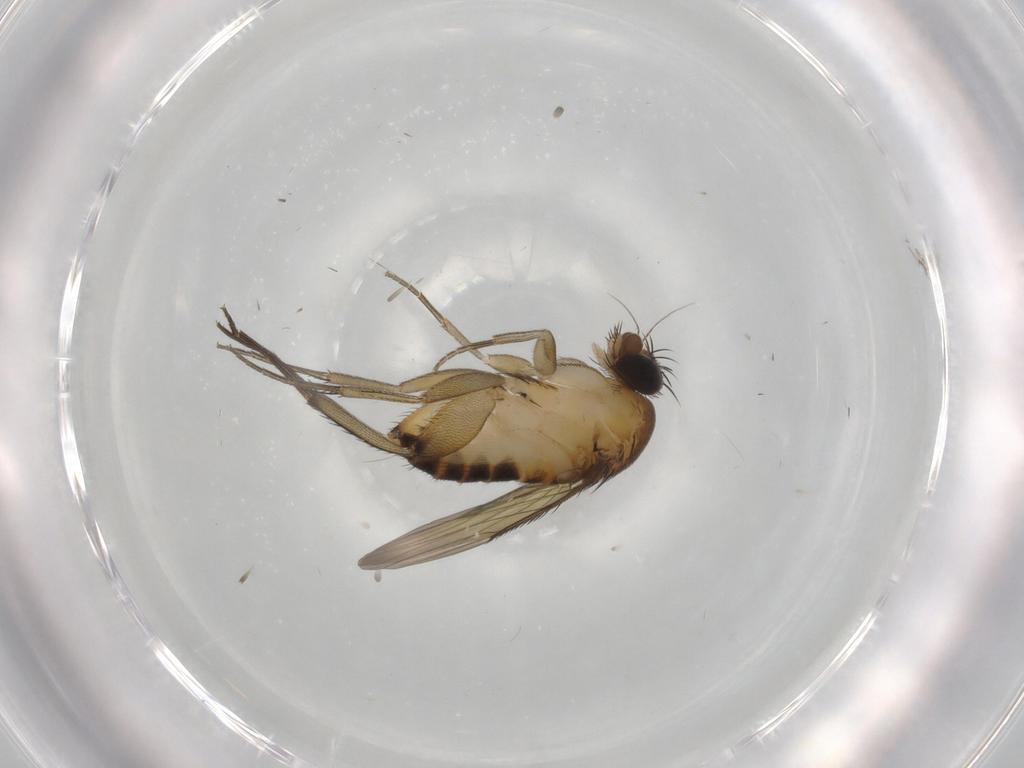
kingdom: Animalia
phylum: Arthropoda
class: Insecta
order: Diptera
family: Phoridae
